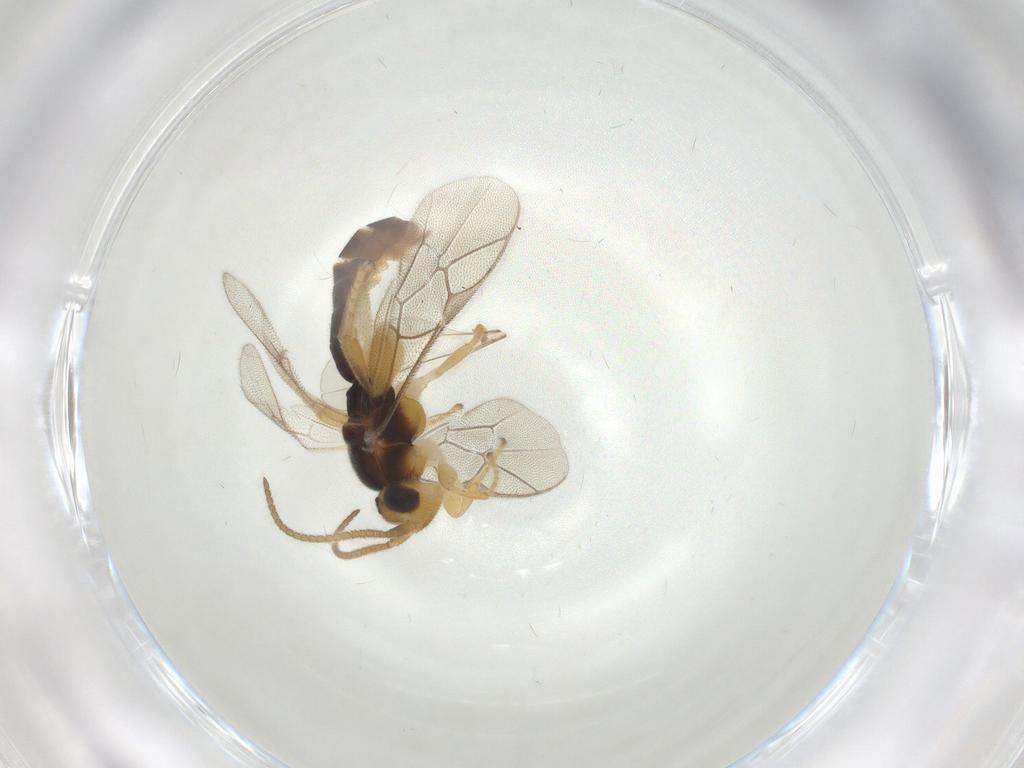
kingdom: Animalia
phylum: Arthropoda
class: Insecta
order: Hymenoptera
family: Ichneumonidae
